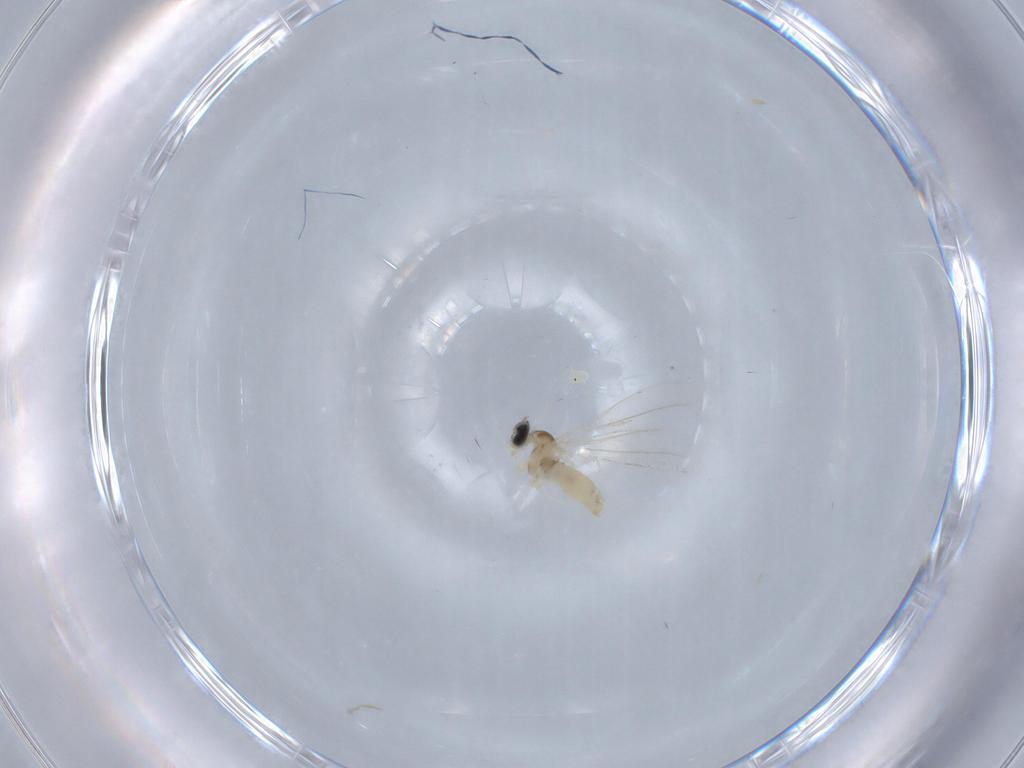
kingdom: Animalia
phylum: Arthropoda
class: Insecta
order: Diptera
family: Cecidomyiidae
